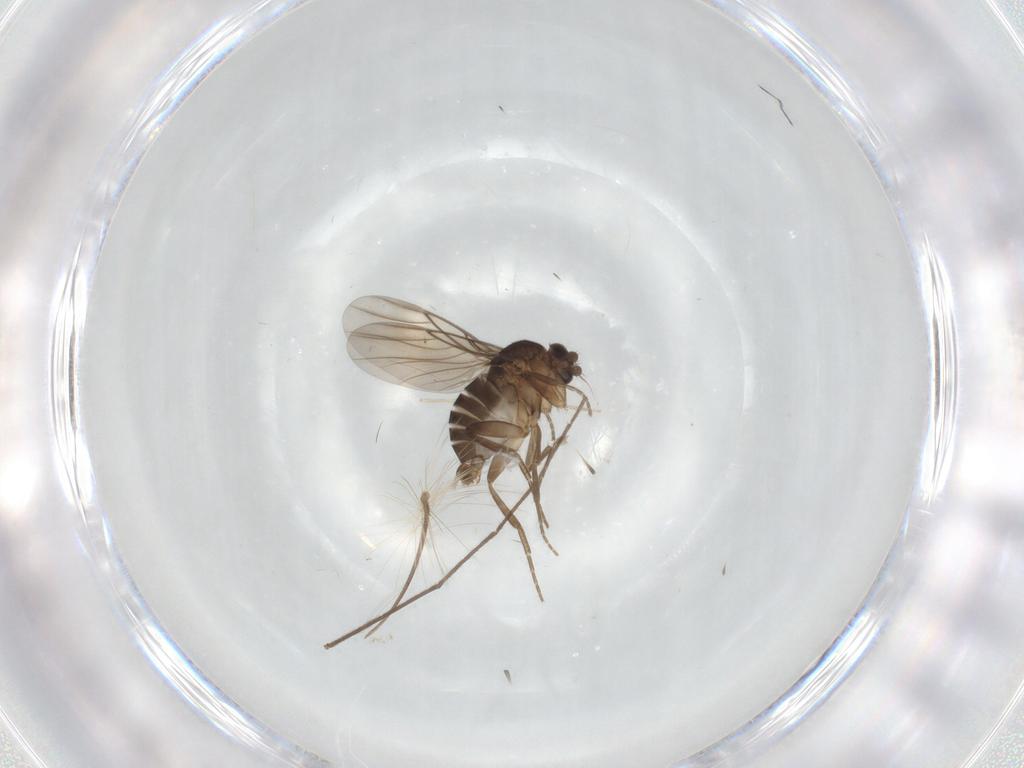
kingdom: Animalia
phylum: Arthropoda
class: Insecta
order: Diptera
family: Phoridae
